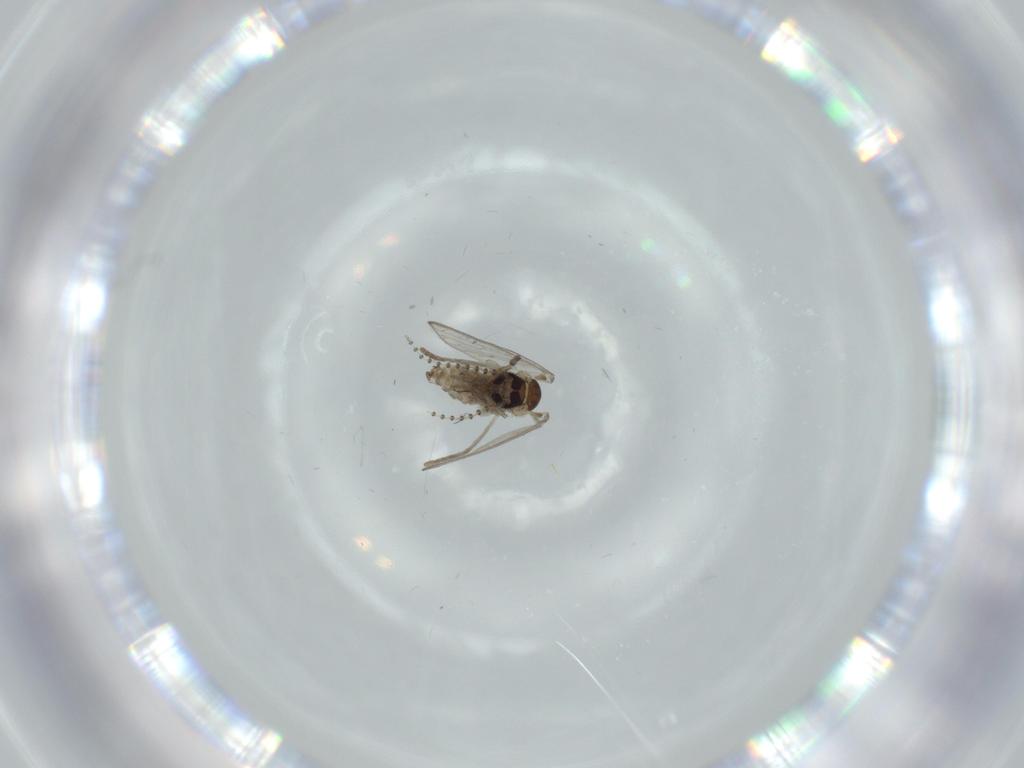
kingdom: Animalia
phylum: Arthropoda
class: Insecta
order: Diptera
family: Psychodidae
